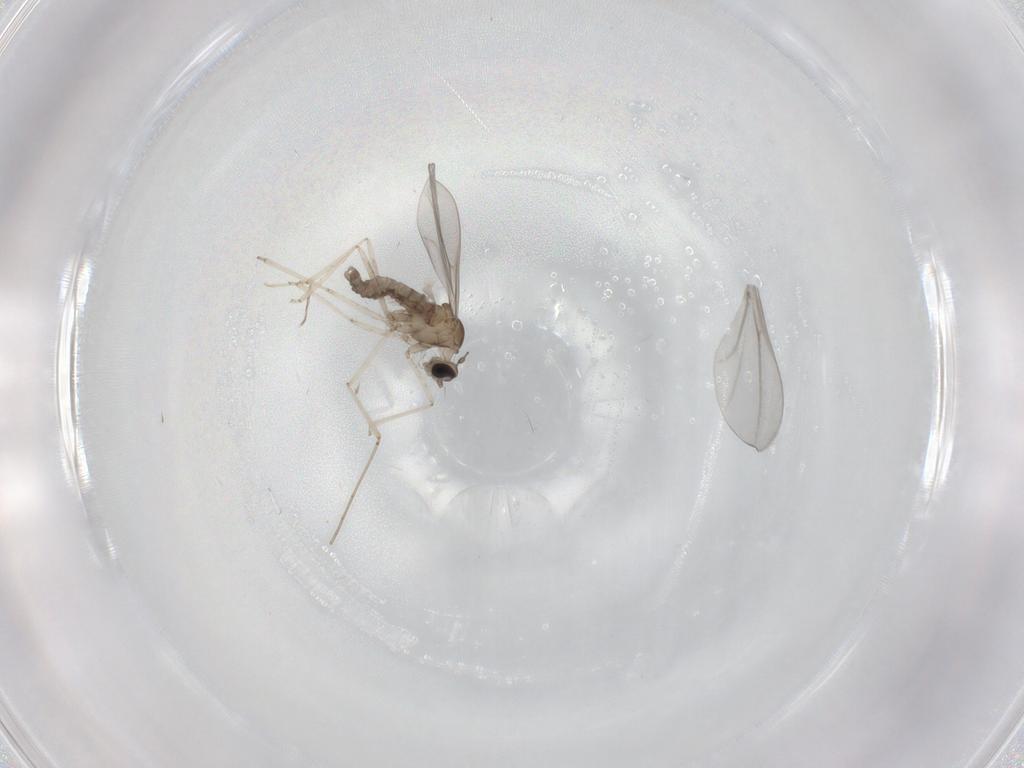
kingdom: Animalia
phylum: Arthropoda
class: Insecta
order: Diptera
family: Cecidomyiidae
